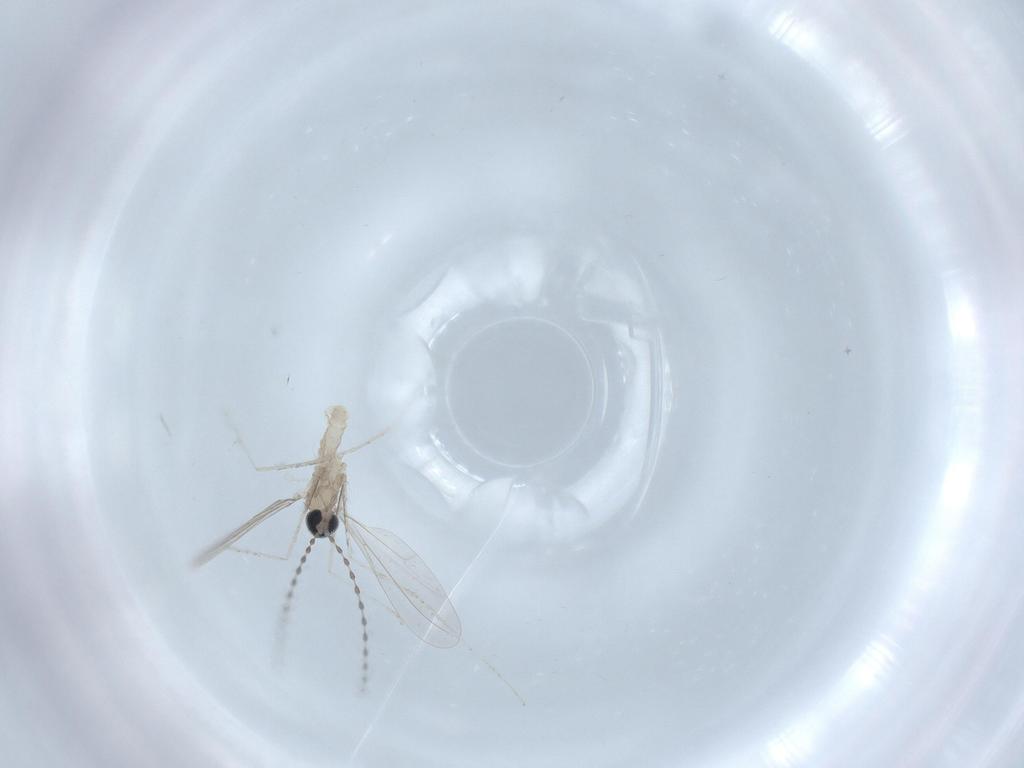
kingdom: Animalia
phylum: Arthropoda
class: Insecta
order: Diptera
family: Cecidomyiidae
